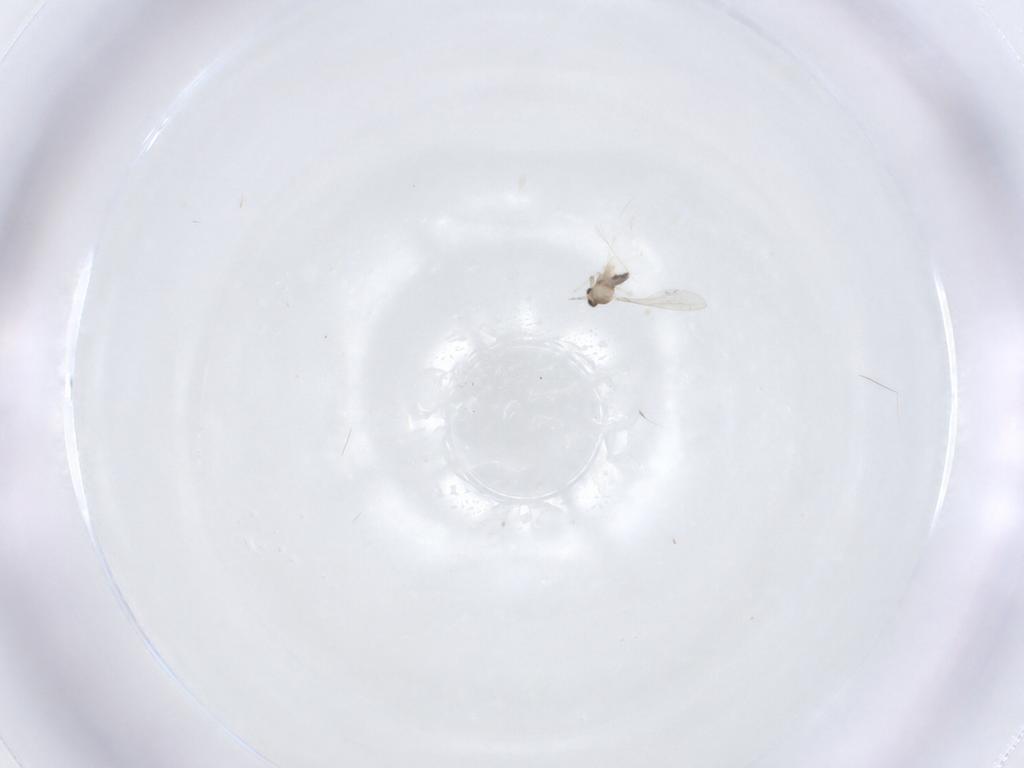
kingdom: Animalia
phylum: Arthropoda
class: Insecta
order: Diptera
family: Cecidomyiidae
